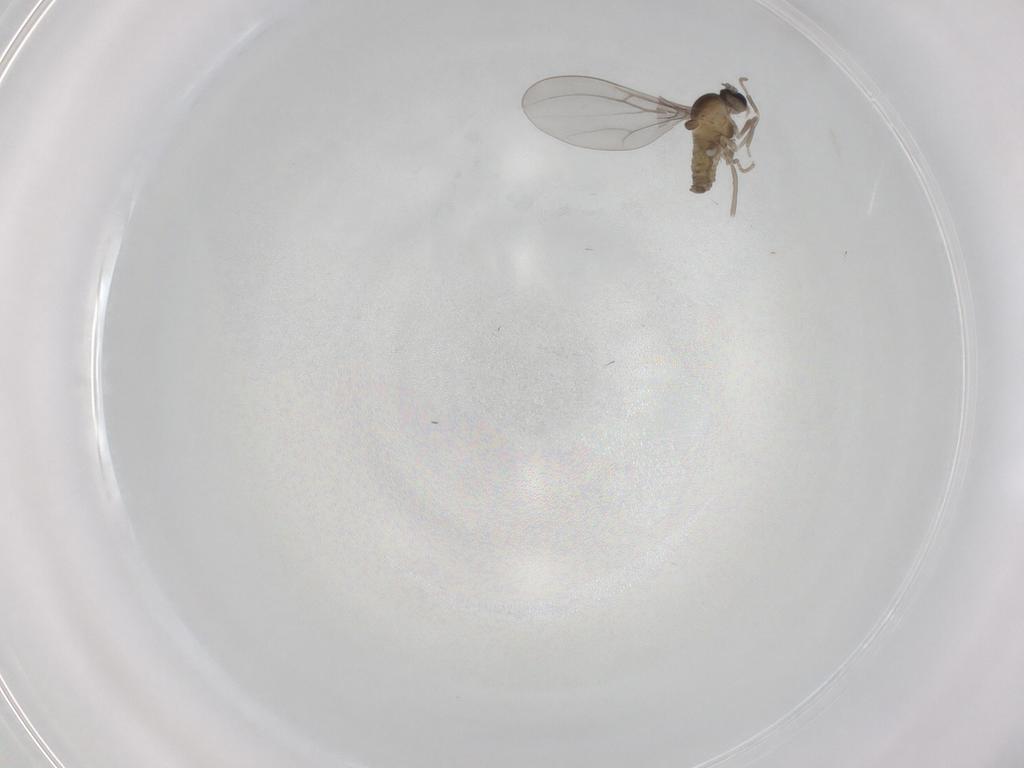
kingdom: Animalia
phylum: Arthropoda
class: Insecta
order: Diptera
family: Cecidomyiidae
